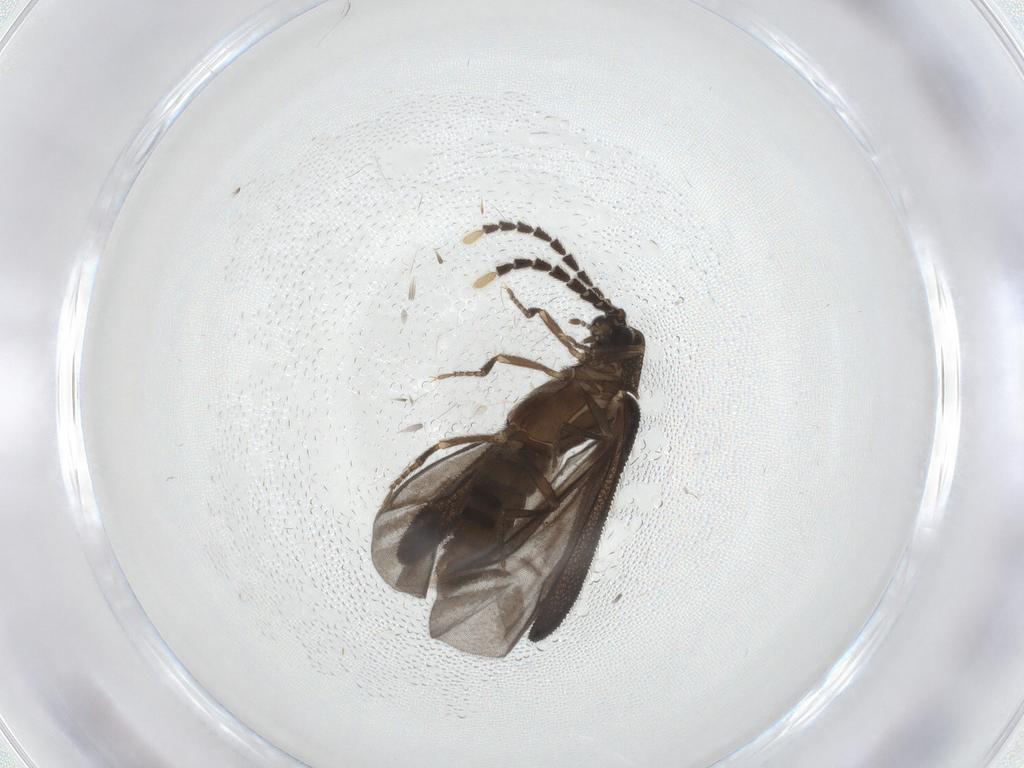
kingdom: Animalia
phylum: Arthropoda
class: Insecta
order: Coleoptera
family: Lycidae
